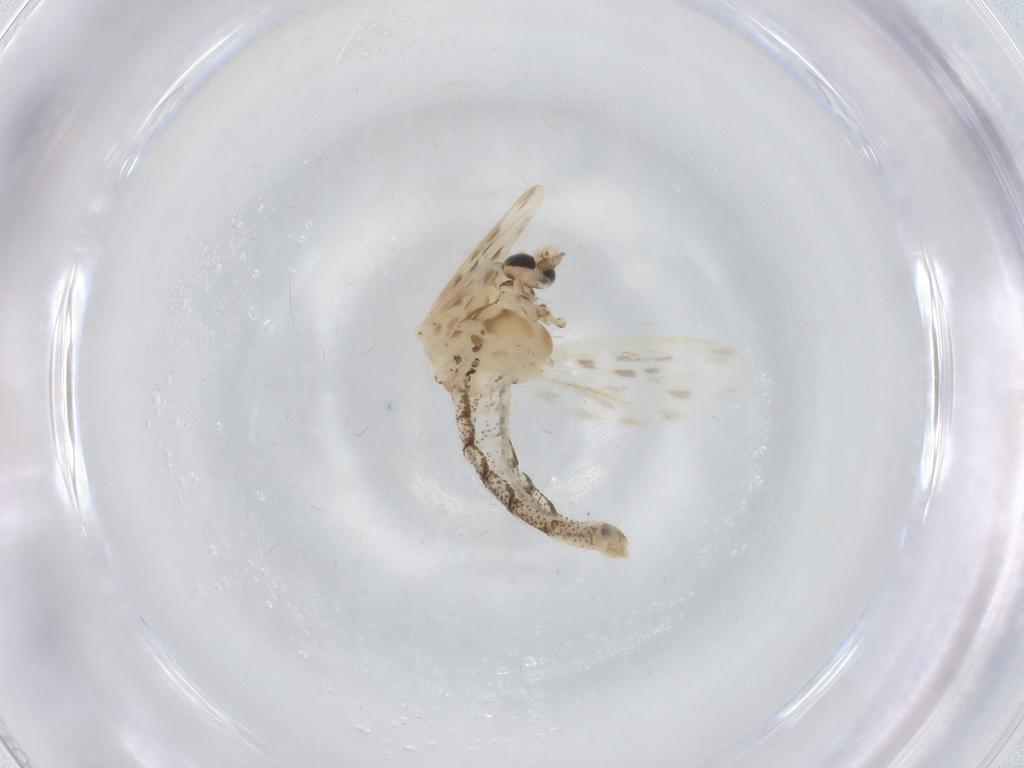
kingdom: Animalia
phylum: Arthropoda
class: Insecta
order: Diptera
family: Chaoboridae
